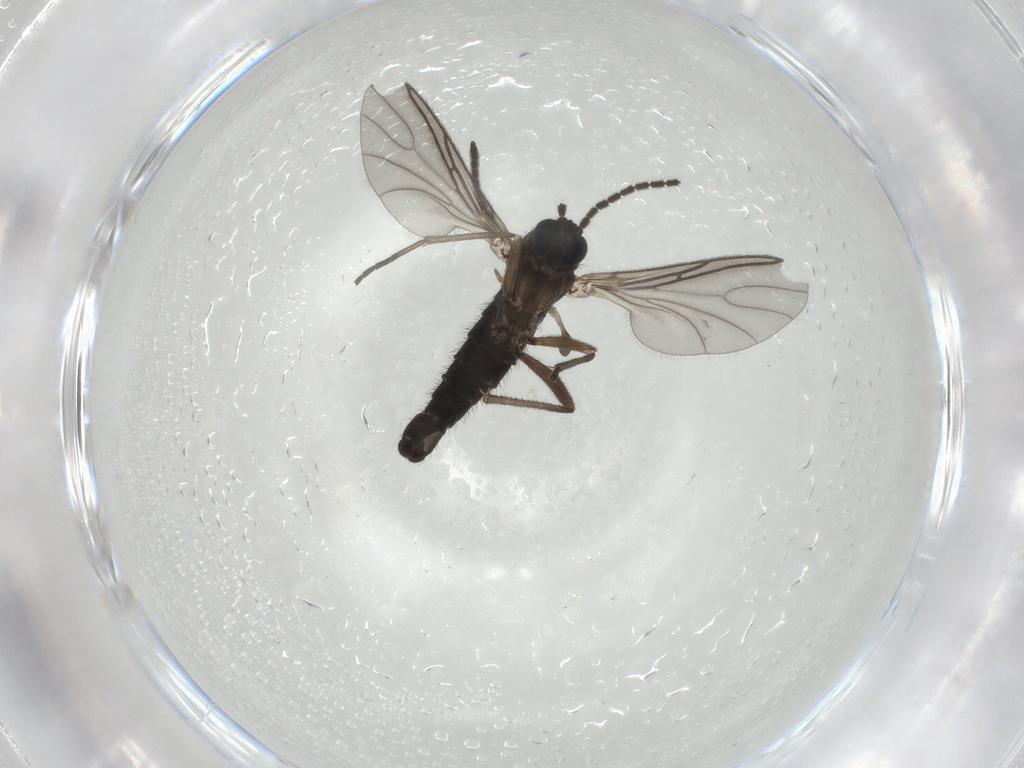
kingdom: Animalia
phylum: Arthropoda
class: Insecta
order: Diptera
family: Sciaridae
